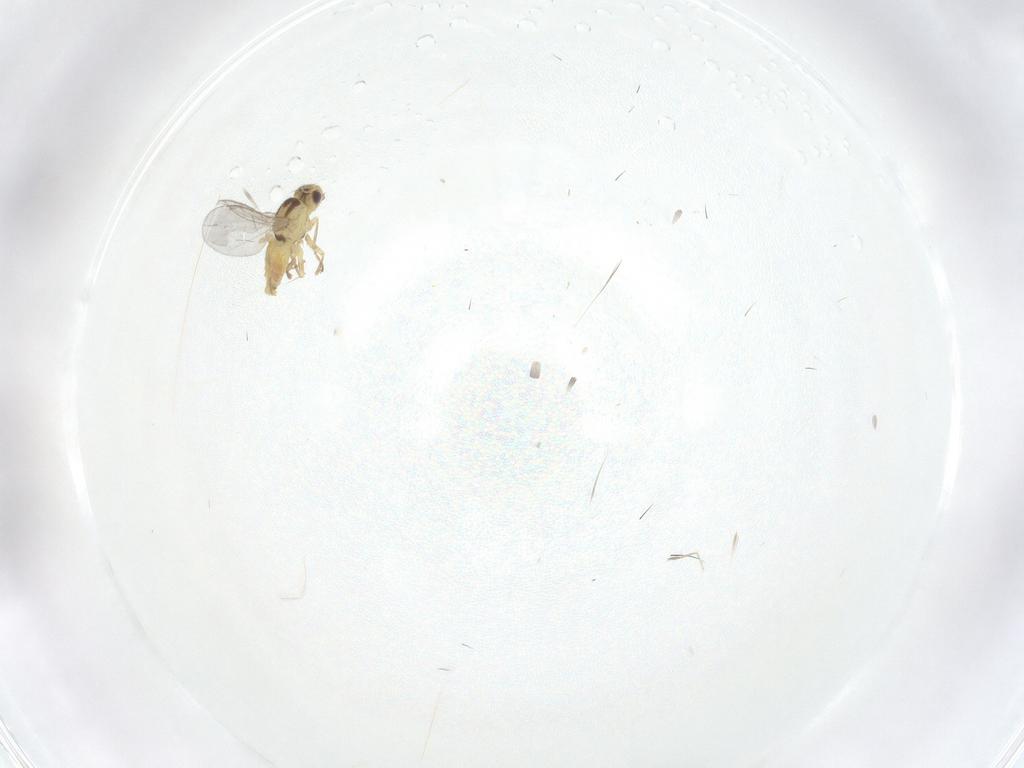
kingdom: Animalia
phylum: Arthropoda
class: Insecta
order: Diptera
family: Agromyzidae
